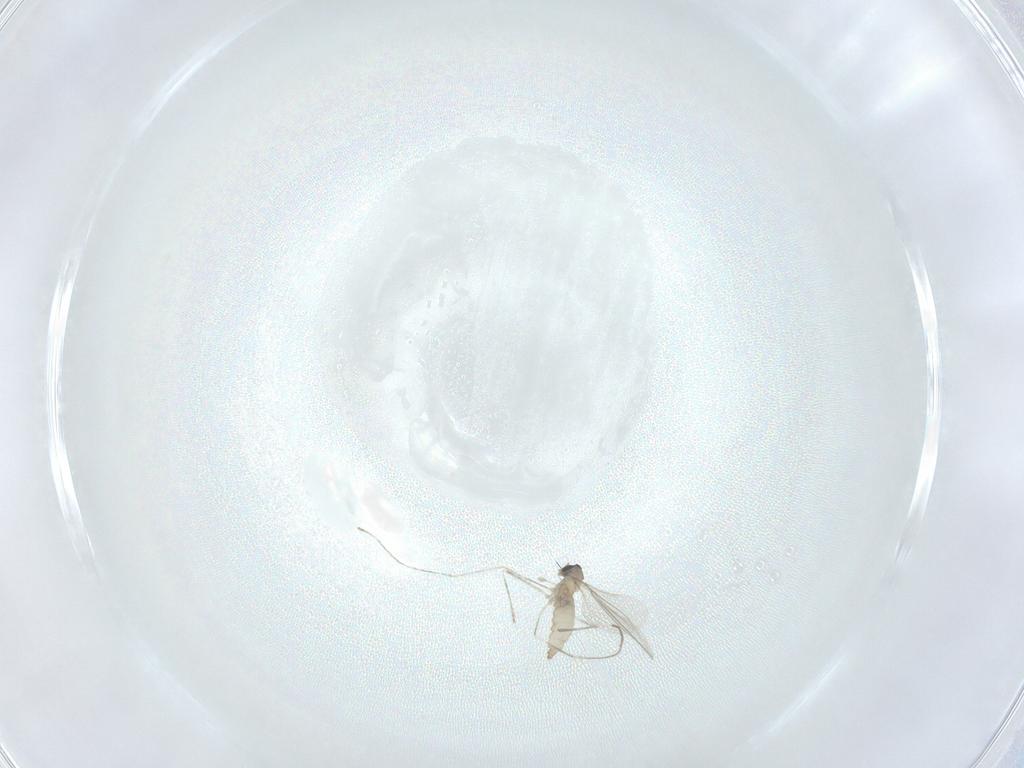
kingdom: Animalia
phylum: Arthropoda
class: Insecta
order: Diptera
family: Cecidomyiidae
